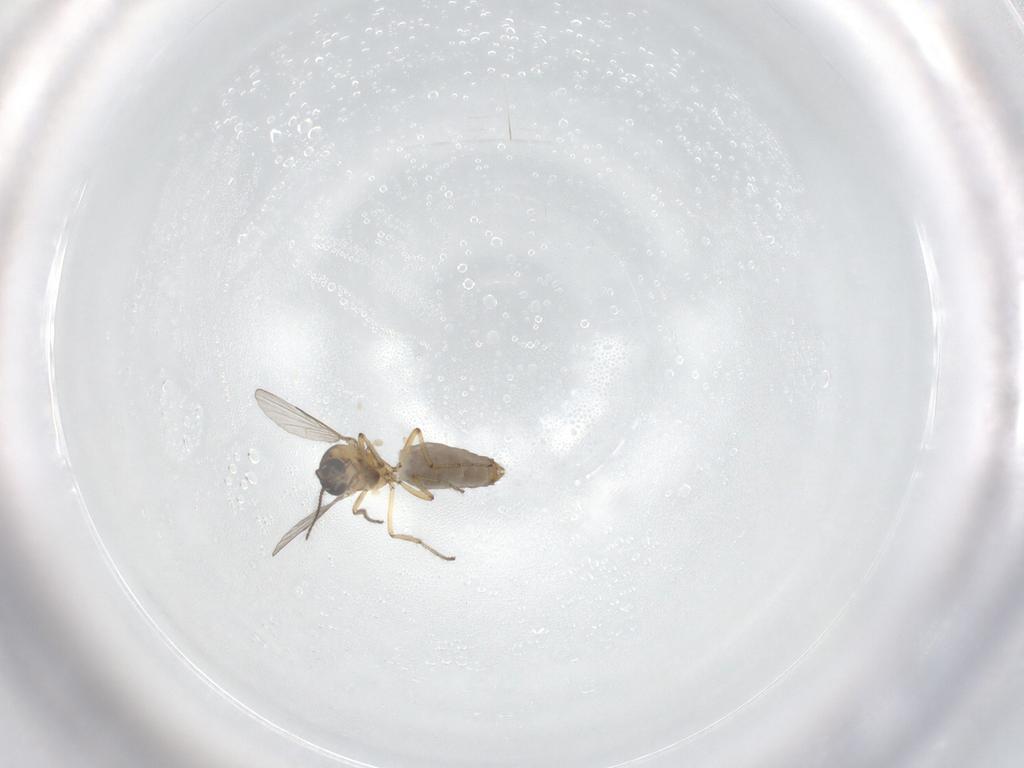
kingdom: Animalia
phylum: Arthropoda
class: Insecta
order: Diptera
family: Ceratopogonidae
